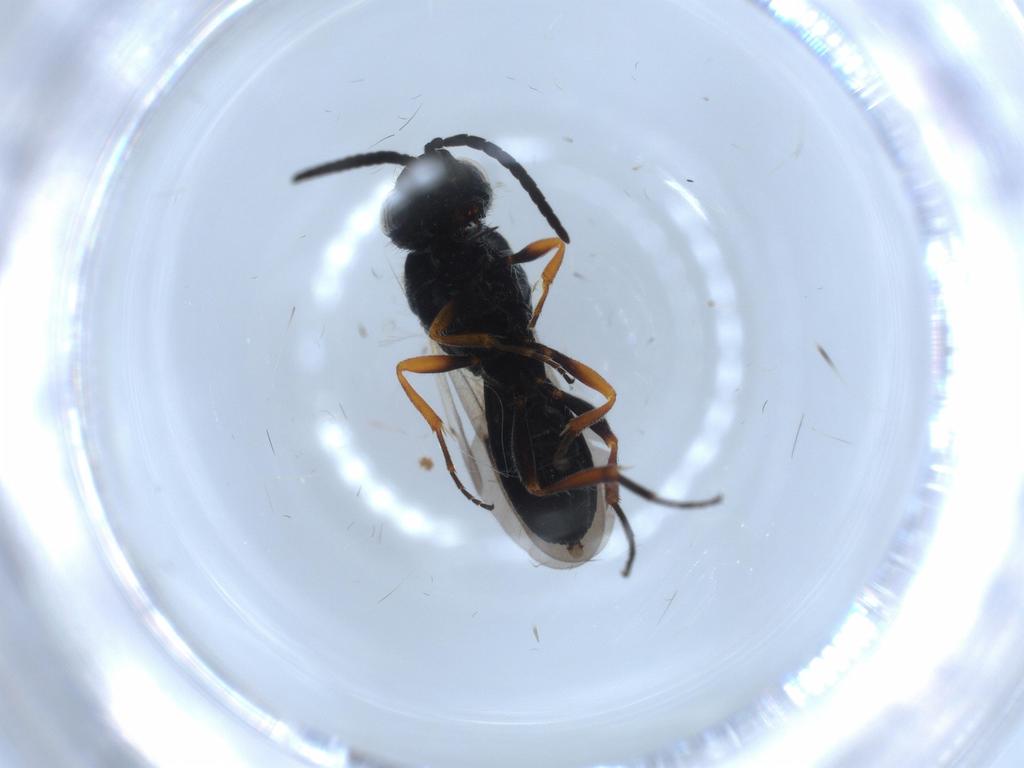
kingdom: Animalia
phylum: Arthropoda
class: Insecta
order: Hymenoptera
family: Scelionidae
